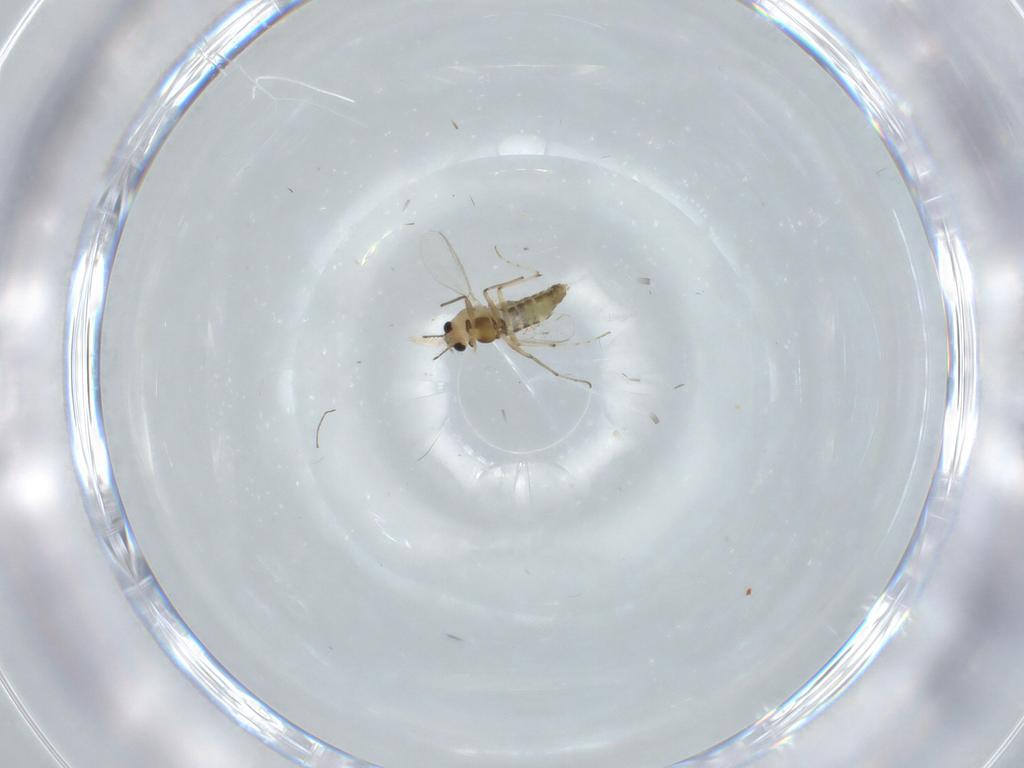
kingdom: Animalia
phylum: Arthropoda
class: Insecta
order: Diptera
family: Chironomidae
